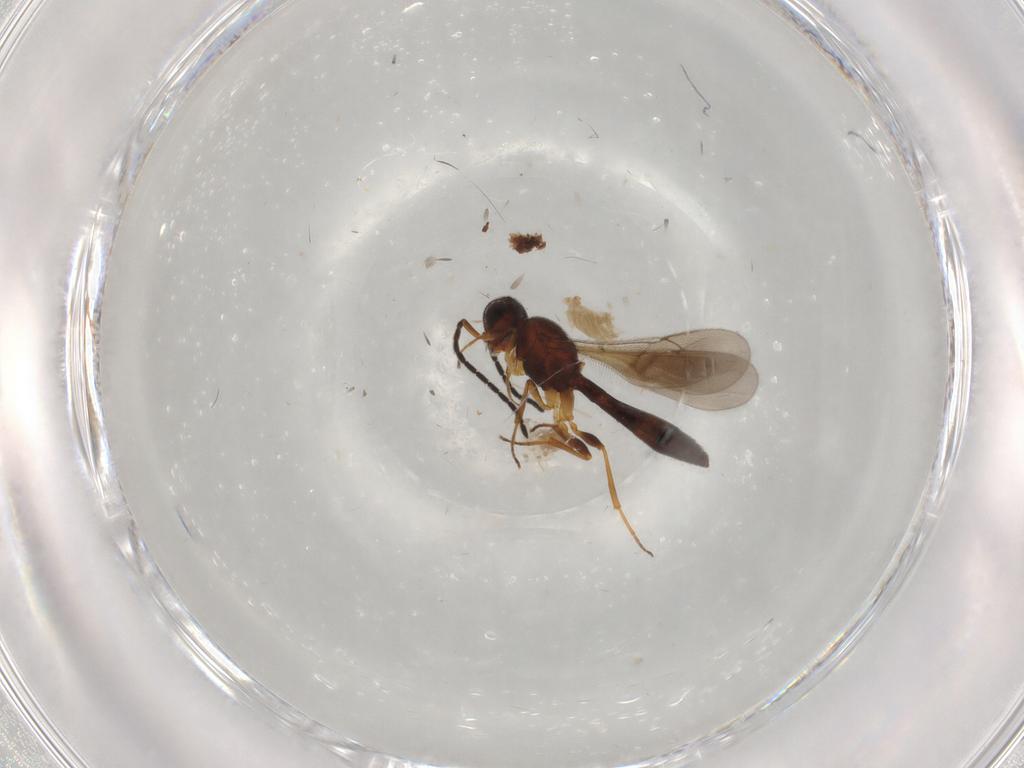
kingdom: Animalia
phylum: Arthropoda
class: Insecta
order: Hymenoptera
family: Scelionidae
